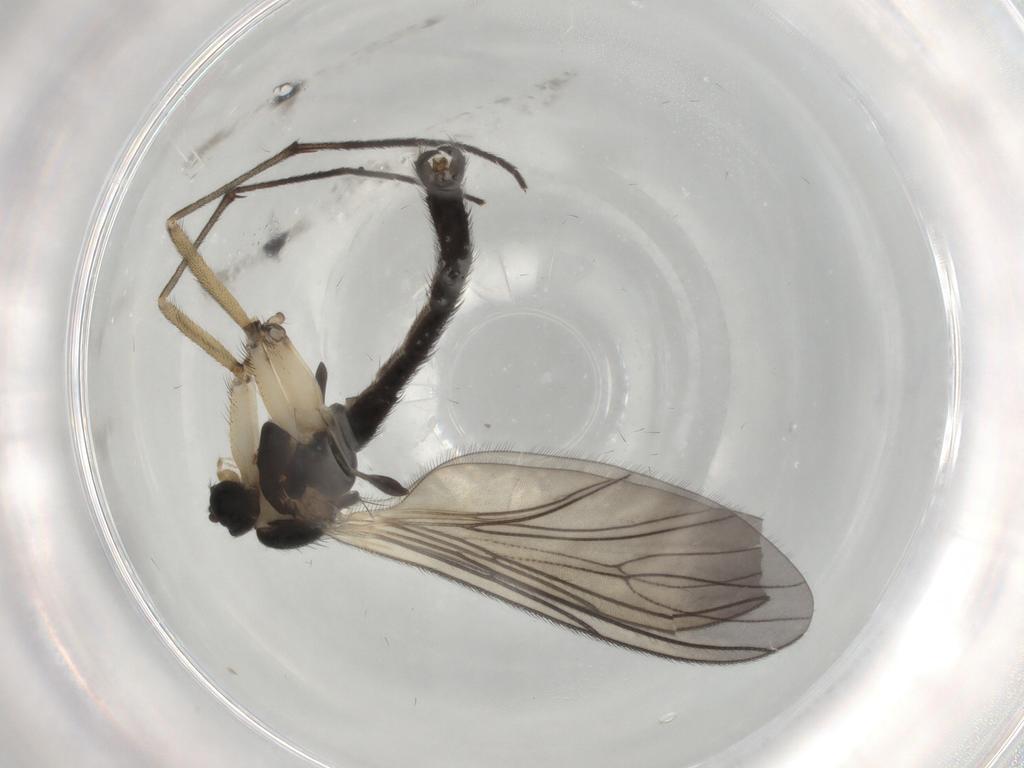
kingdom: Animalia
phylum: Arthropoda
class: Insecta
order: Diptera
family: Sciaridae
